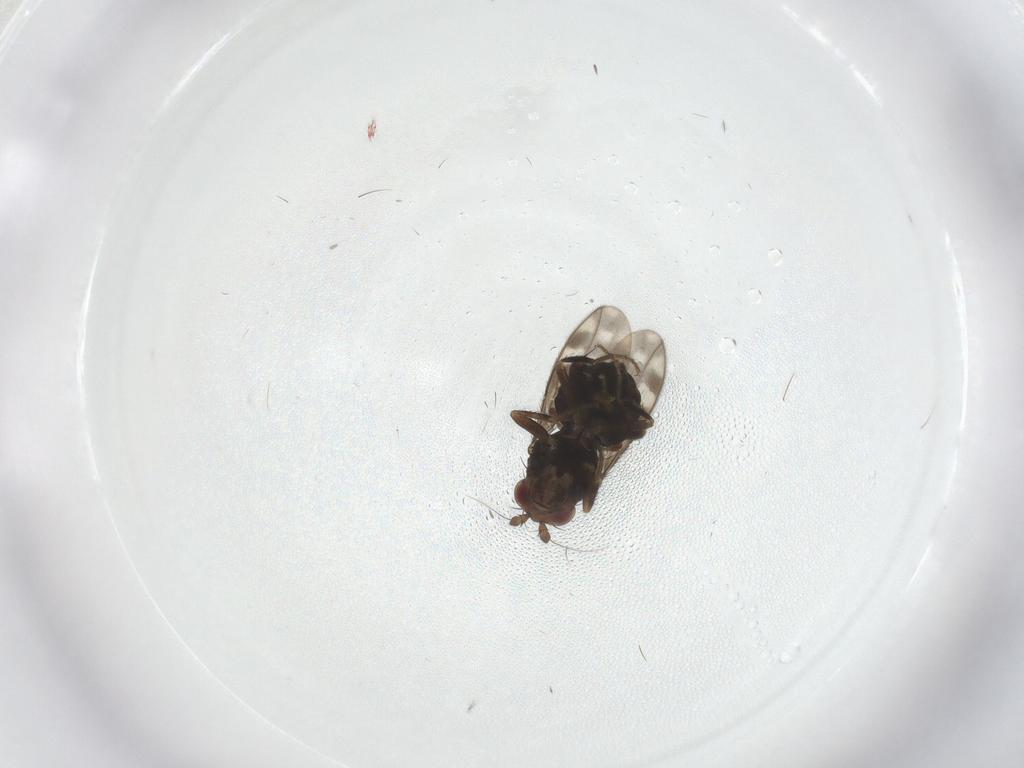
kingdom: Animalia
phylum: Arthropoda
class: Insecta
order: Diptera
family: Sphaeroceridae
